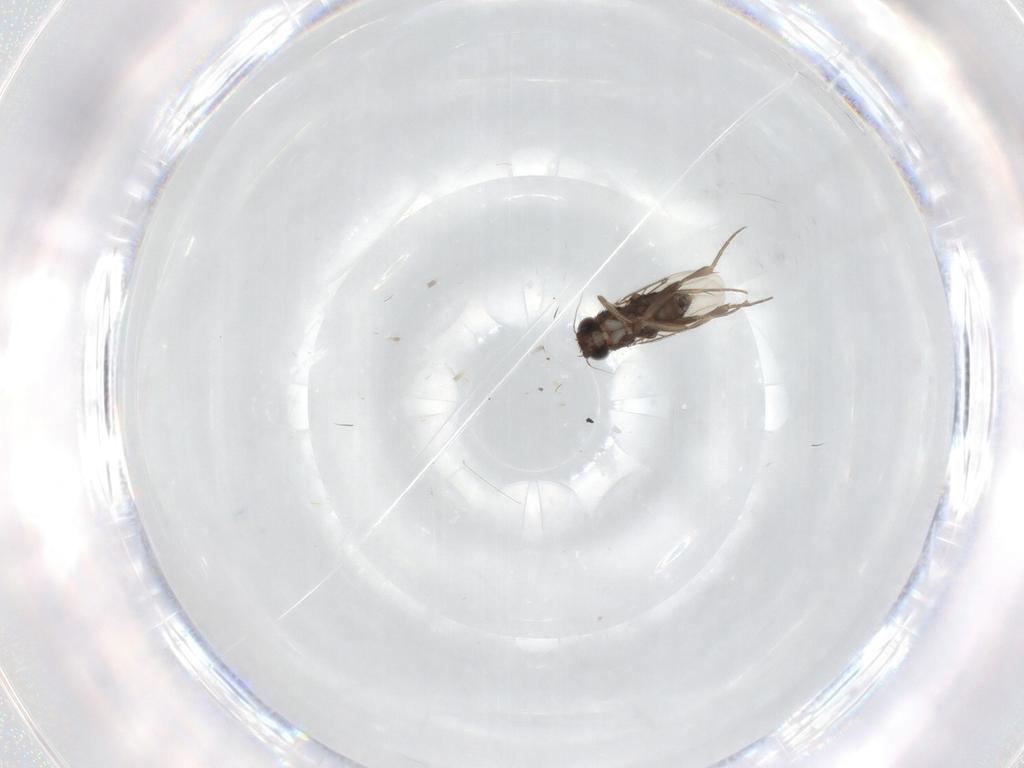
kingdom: Animalia
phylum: Arthropoda
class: Insecta
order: Diptera
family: Phoridae
